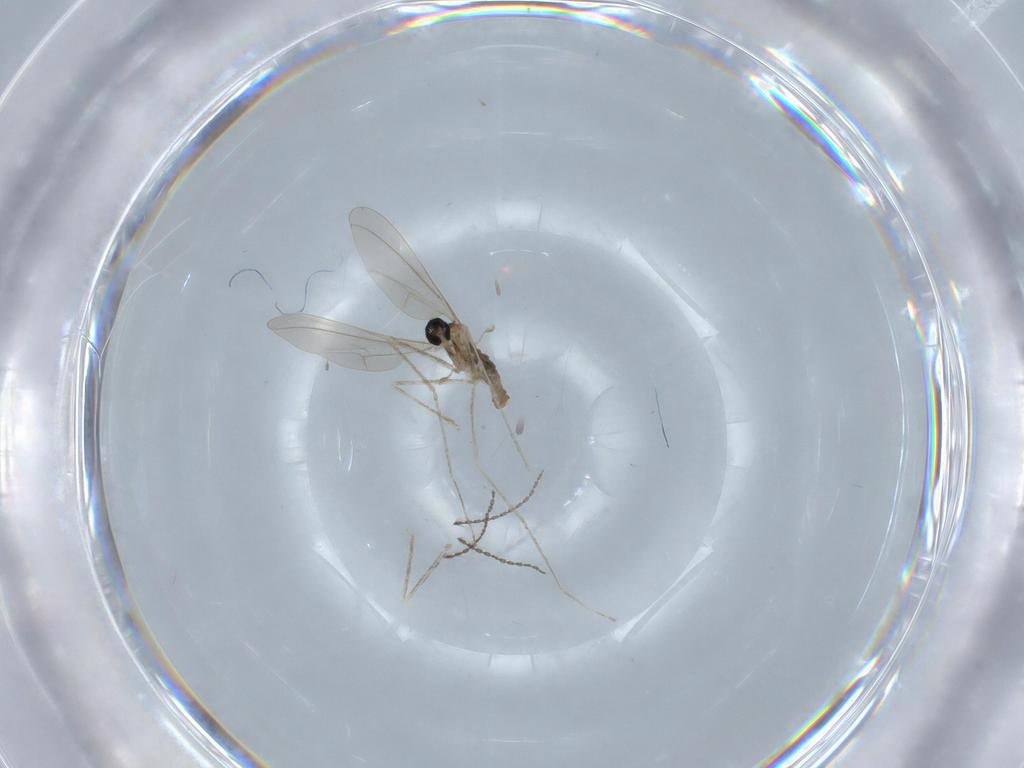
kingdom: Animalia
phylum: Arthropoda
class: Insecta
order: Diptera
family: Cecidomyiidae
